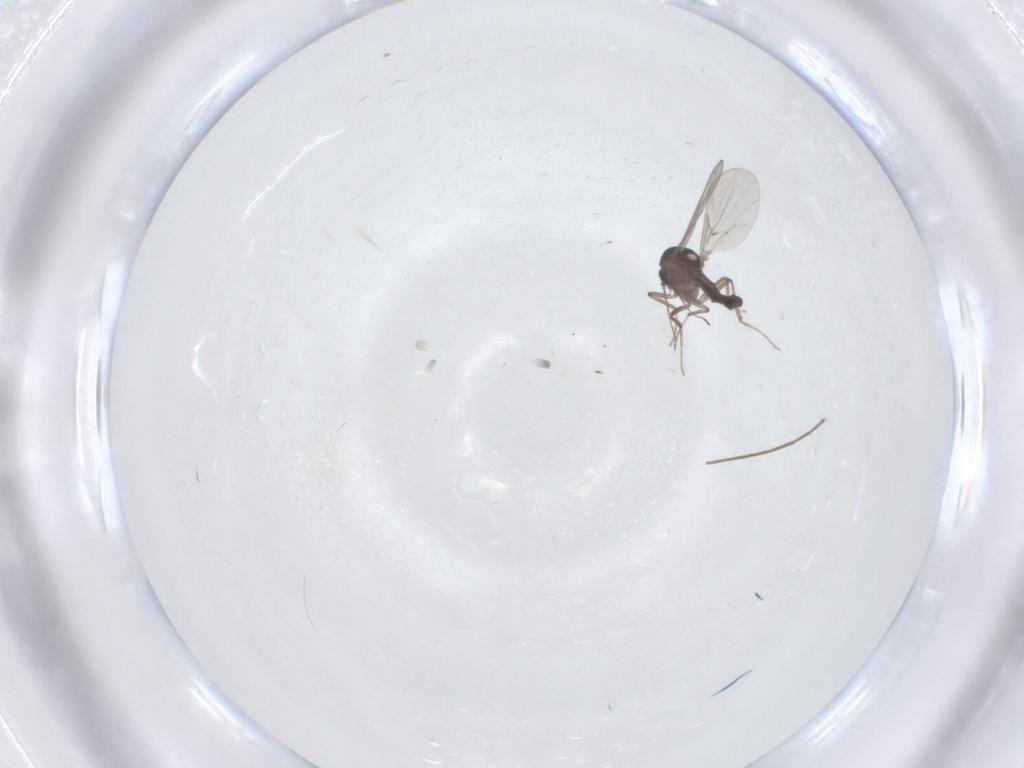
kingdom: Animalia
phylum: Arthropoda
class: Insecta
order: Diptera
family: Ceratopogonidae
